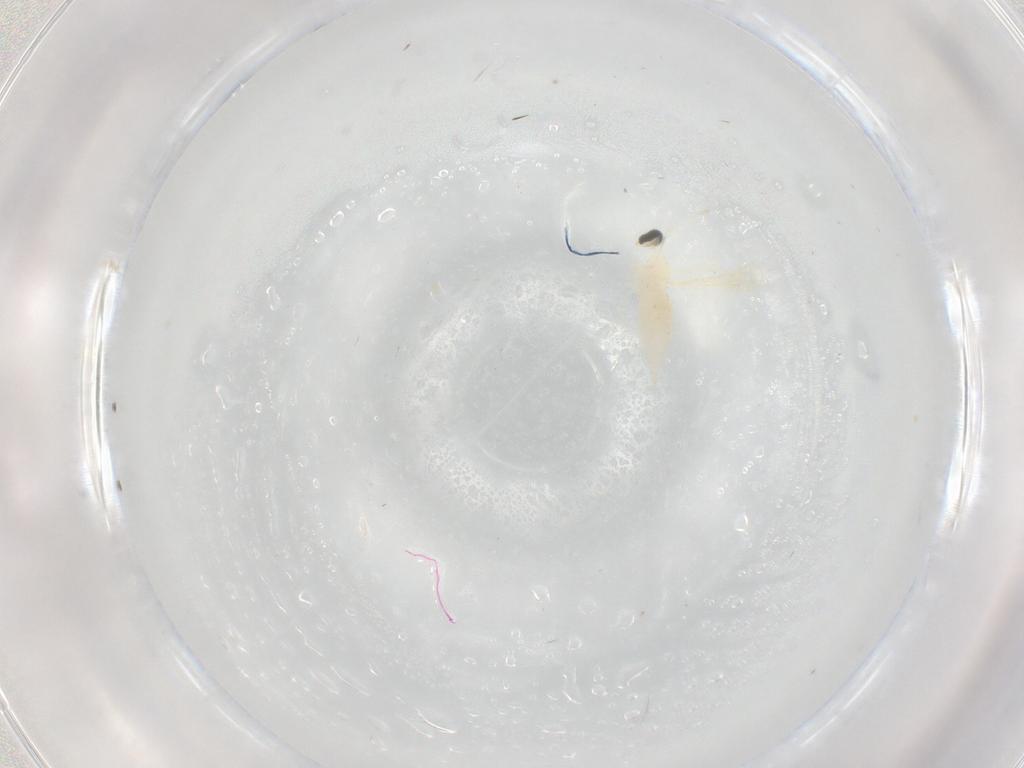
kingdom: Animalia
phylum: Arthropoda
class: Insecta
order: Diptera
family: Cecidomyiidae
